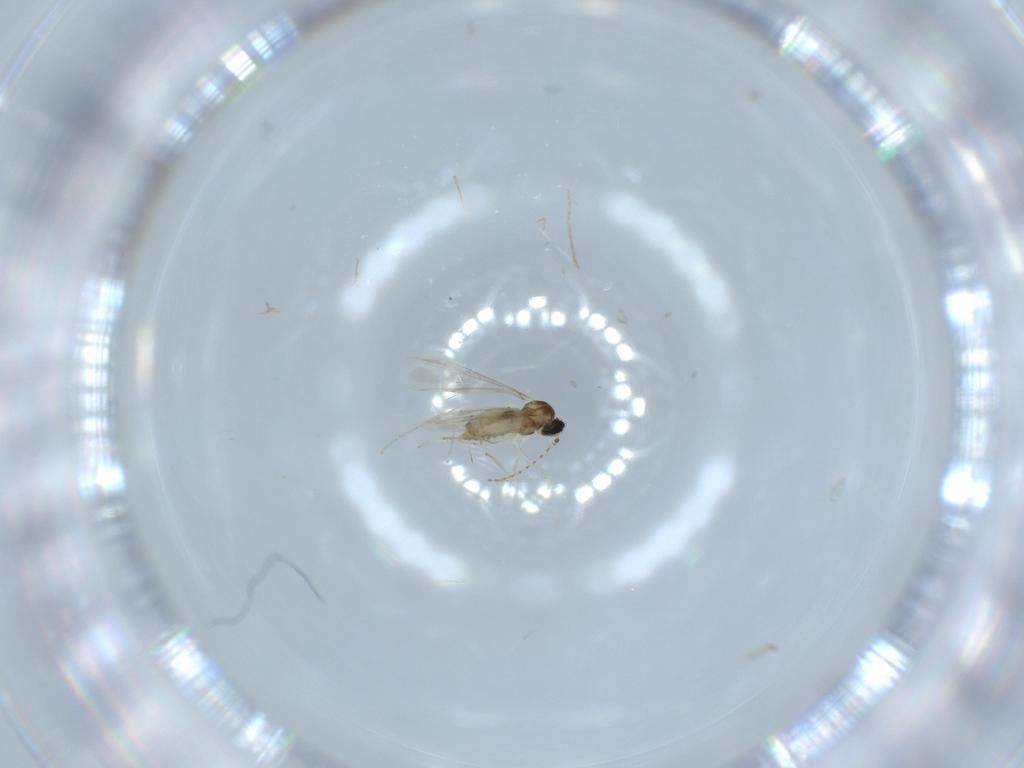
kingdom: Animalia
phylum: Arthropoda
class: Insecta
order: Diptera
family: Cecidomyiidae
